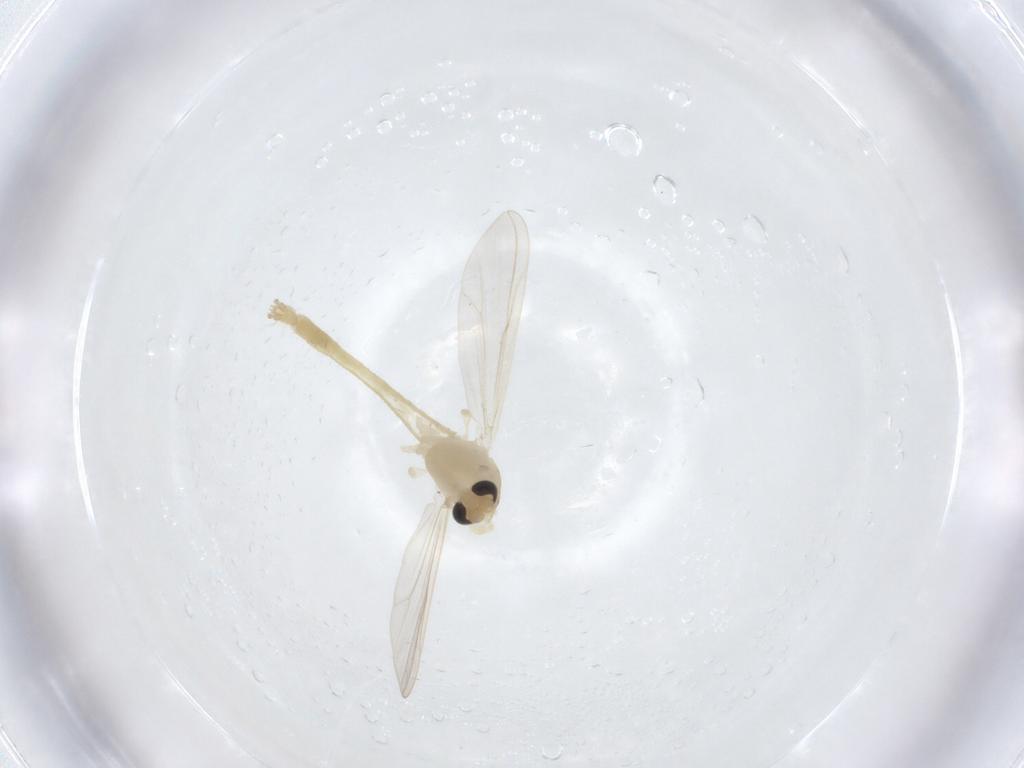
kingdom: Animalia
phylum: Arthropoda
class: Insecta
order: Diptera
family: Chironomidae
